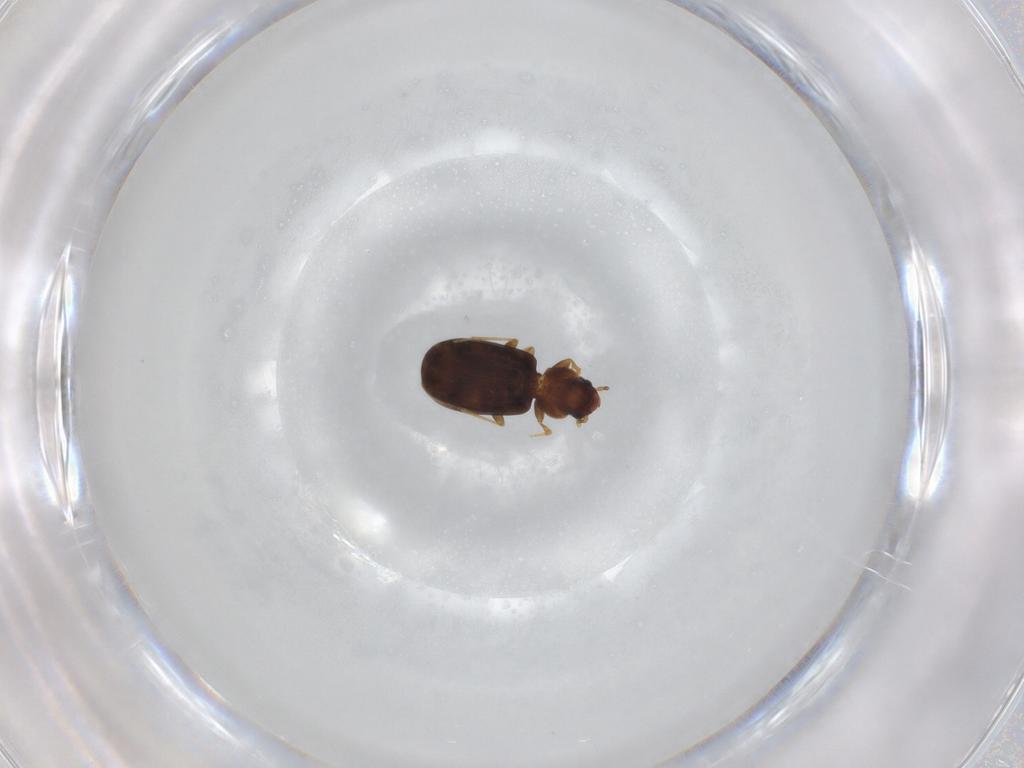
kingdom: Animalia
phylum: Arthropoda
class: Insecta
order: Coleoptera
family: Carabidae
